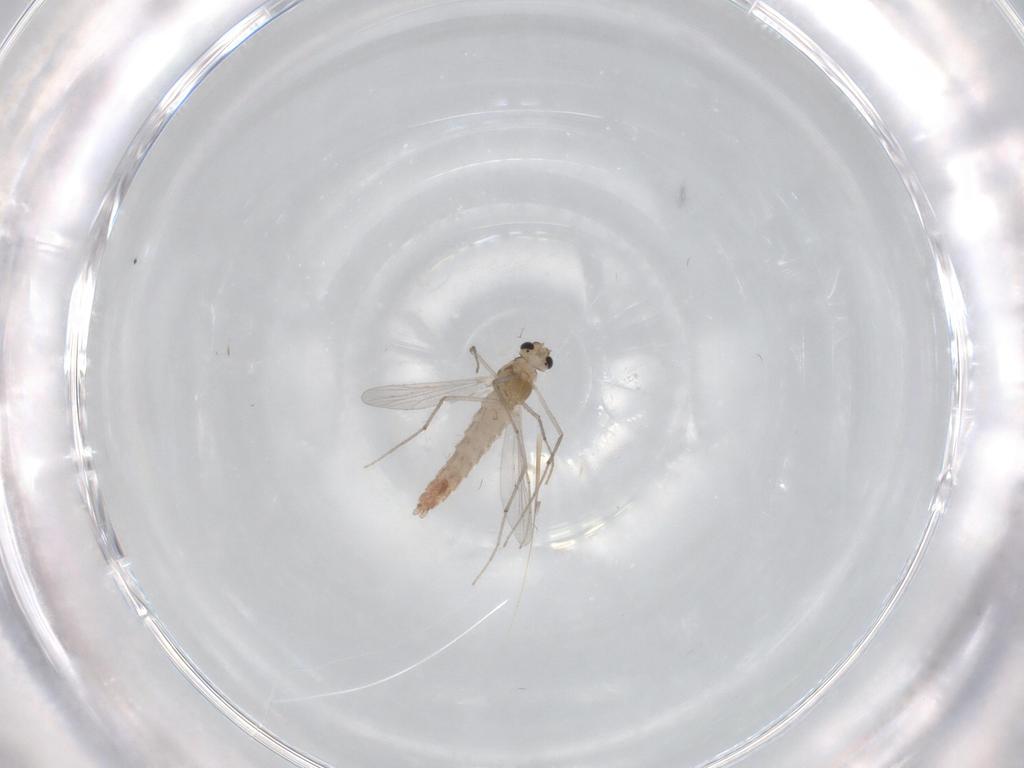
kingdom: Animalia
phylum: Arthropoda
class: Insecta
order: Diptera
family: Chironomidae
